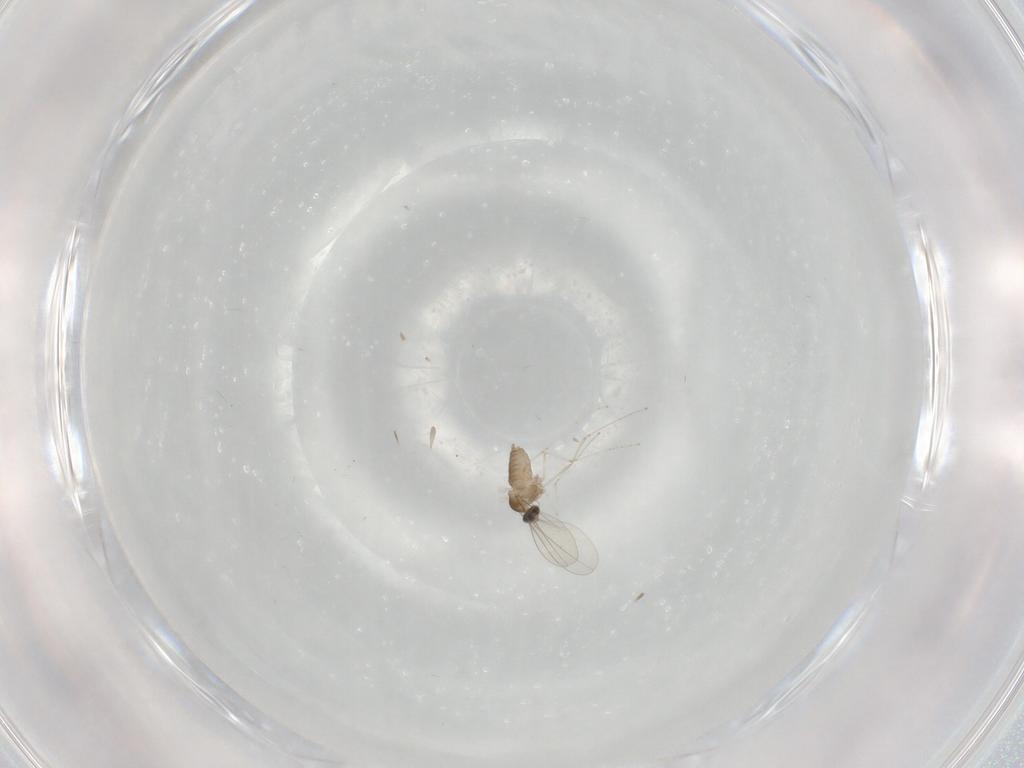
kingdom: Animalia
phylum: Arthropoda
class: Insecta
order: Diptera
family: Cecidomyiidae
